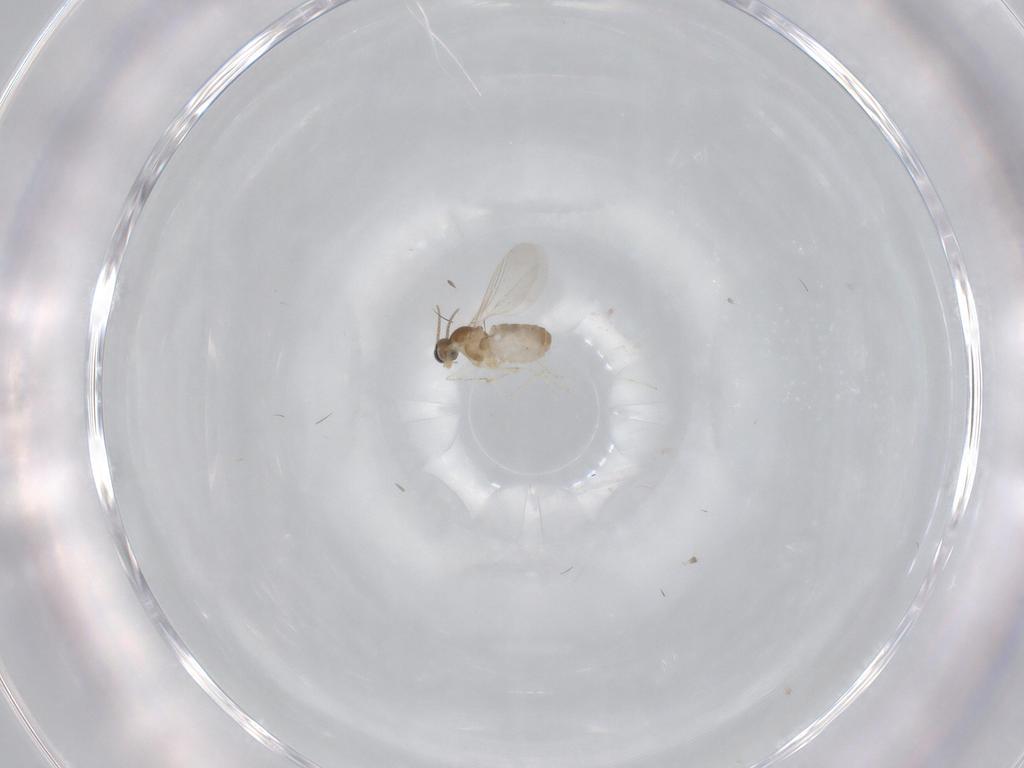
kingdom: Animalia
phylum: Arthropoda
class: Insecta
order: Diptera
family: Cecidomyiidae
